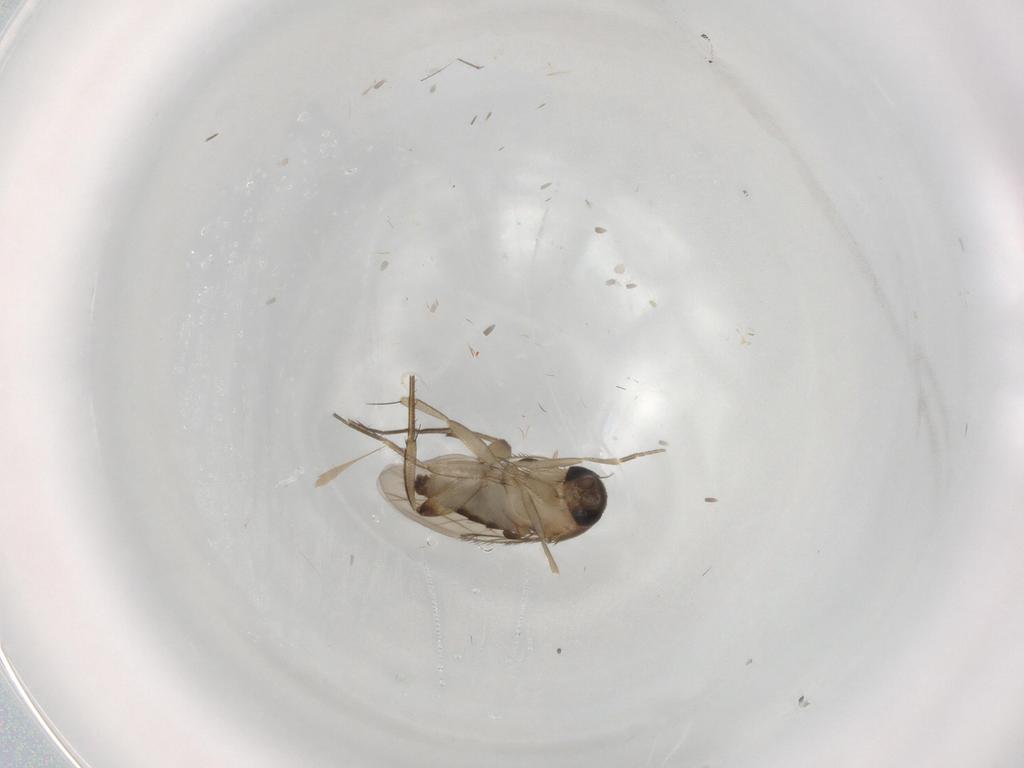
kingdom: Animalia
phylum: Arthropoda
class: Insecta
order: Diptera
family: Phoridae
